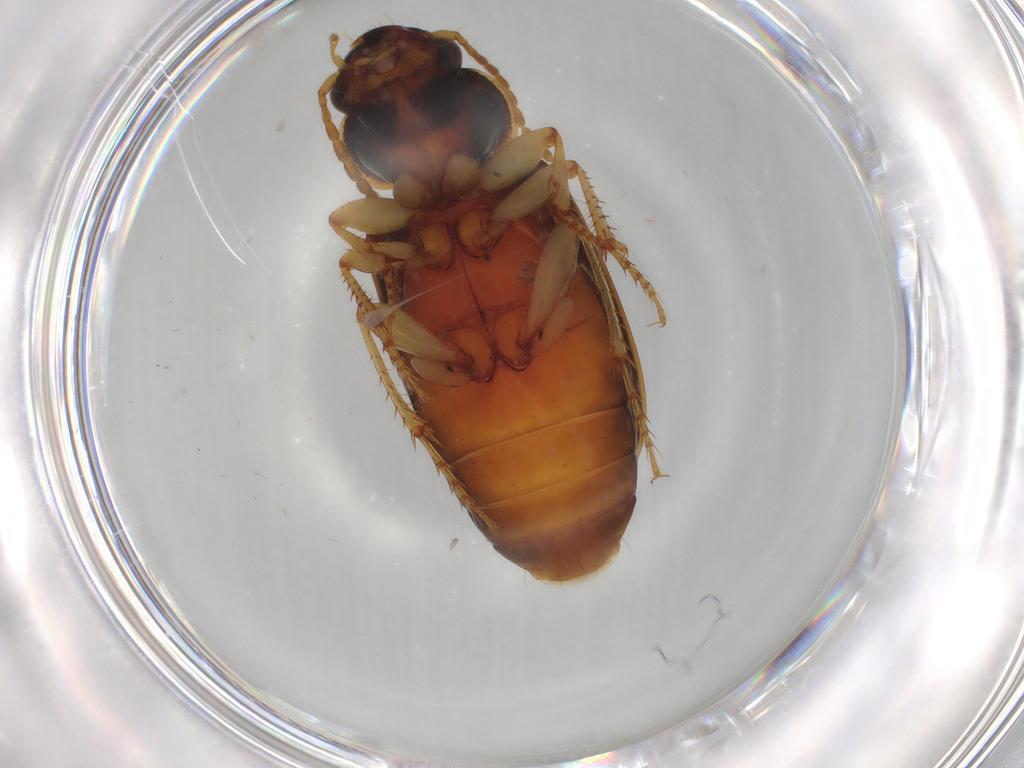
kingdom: Animalia
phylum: Arthropoda
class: Insecta
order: Coleoptera
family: Carabidae
